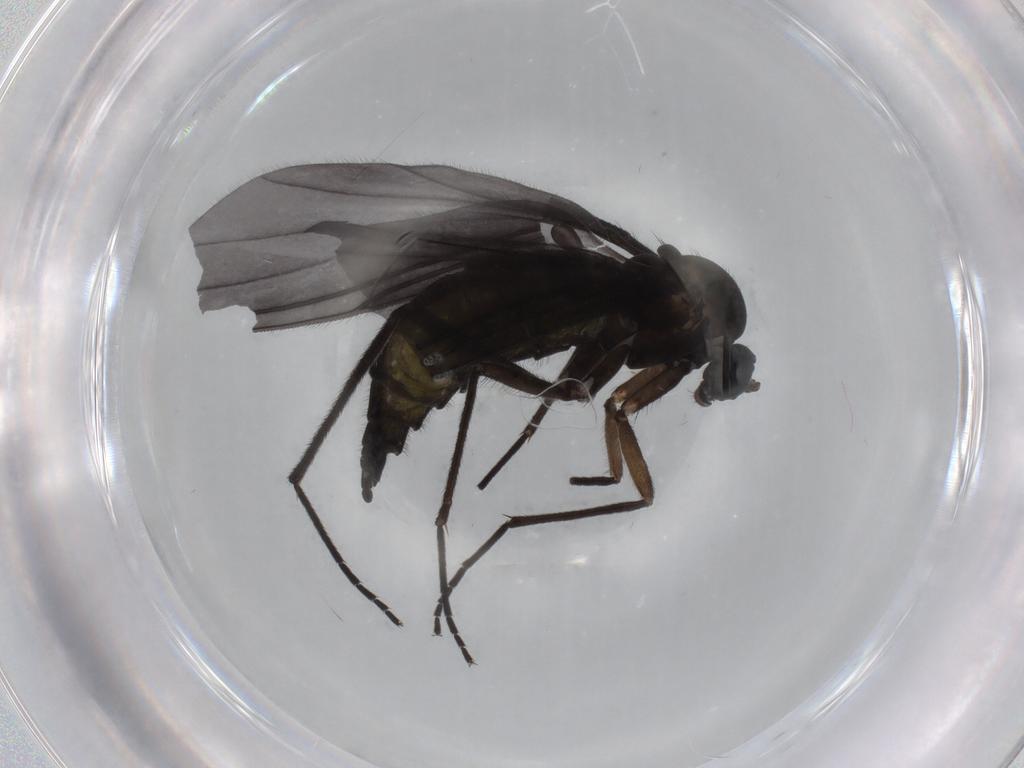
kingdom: Animalia
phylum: Arthropoda
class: Insecta
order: Diptera
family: Sciaridae
